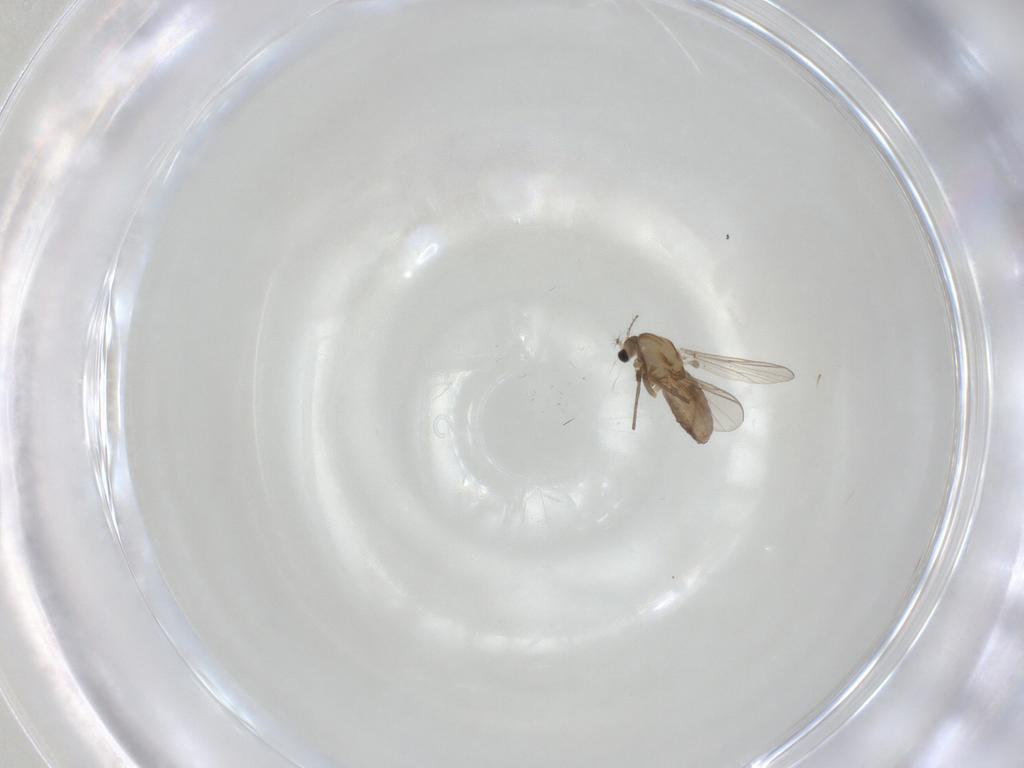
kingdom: Animalia
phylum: Arthropoda
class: Insecta
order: Diptera
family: Chironomidae
